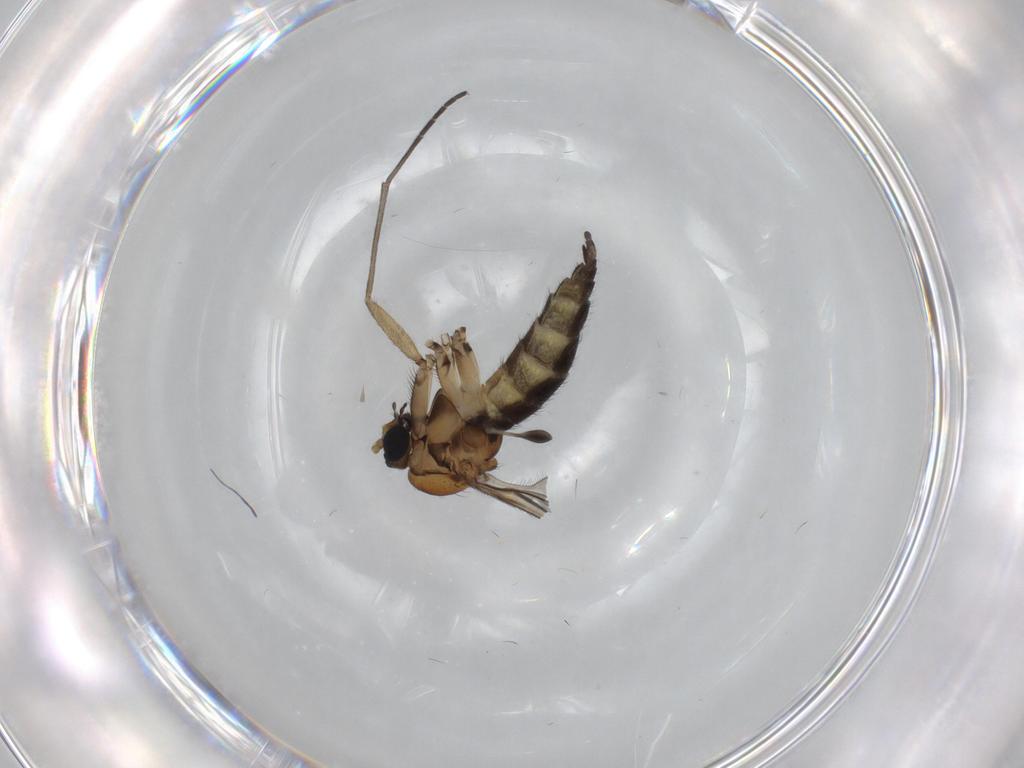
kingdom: Animalia
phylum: Arthropoda
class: Insecta
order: Diptera
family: Sciaridae
